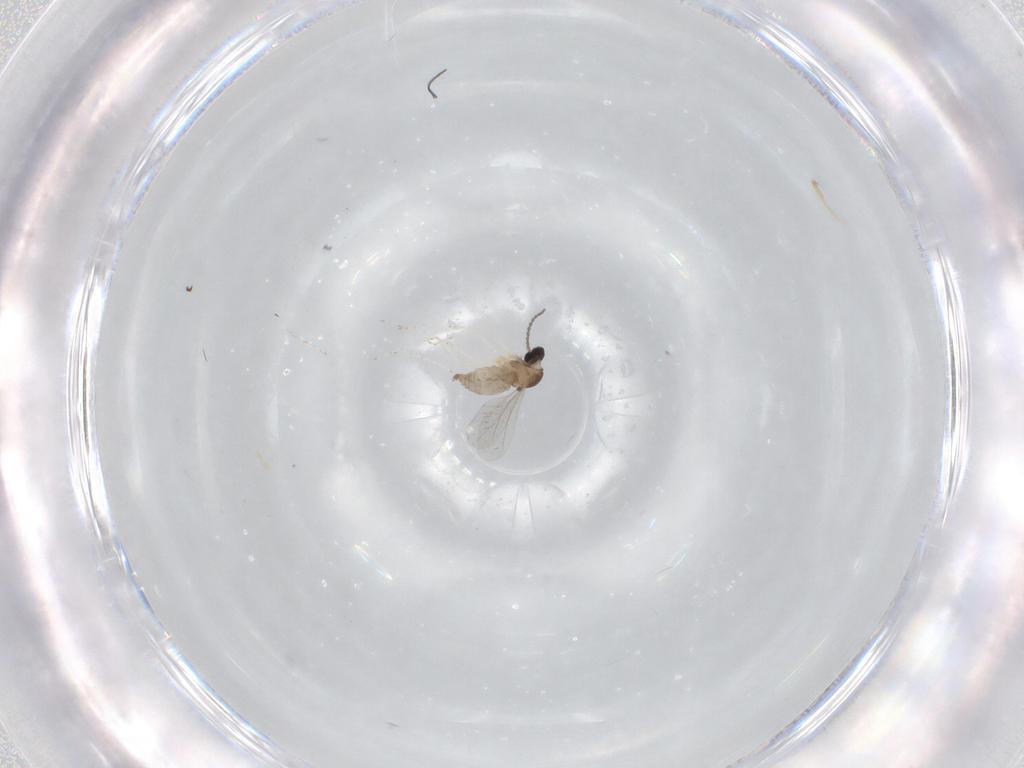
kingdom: Animalia
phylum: Arthropoda
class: Insecta
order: Diptera
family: Cecidomyiidae
